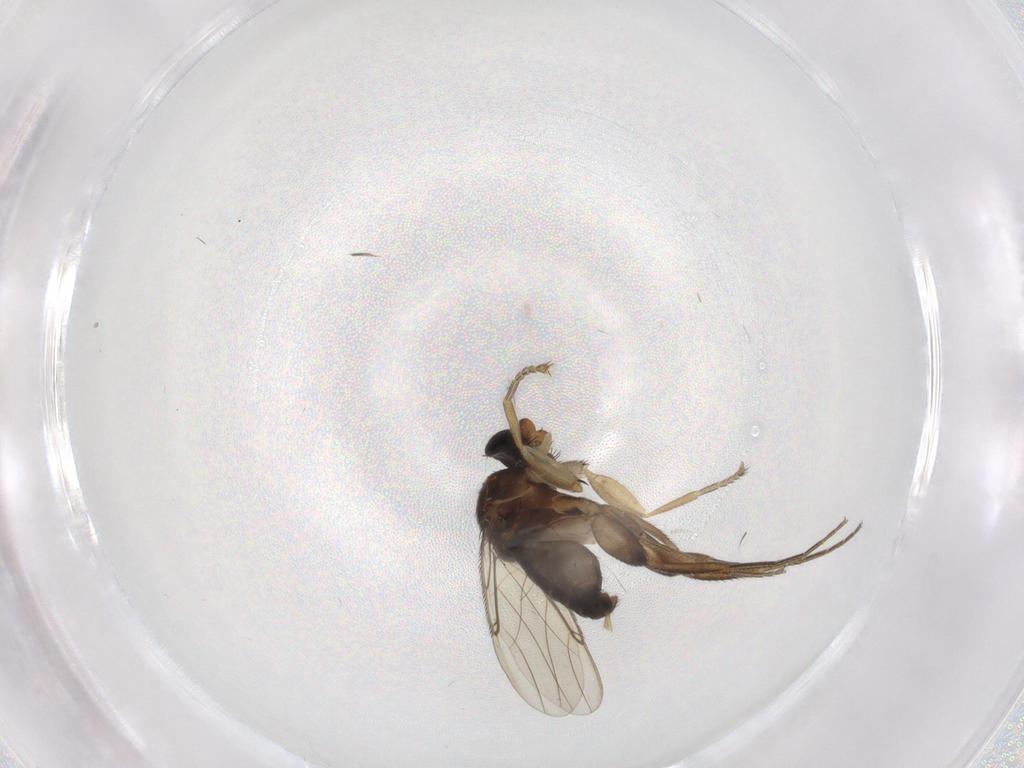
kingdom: Animalia
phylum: Arthropoda
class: Insecta
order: Diptera
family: Phoridae
